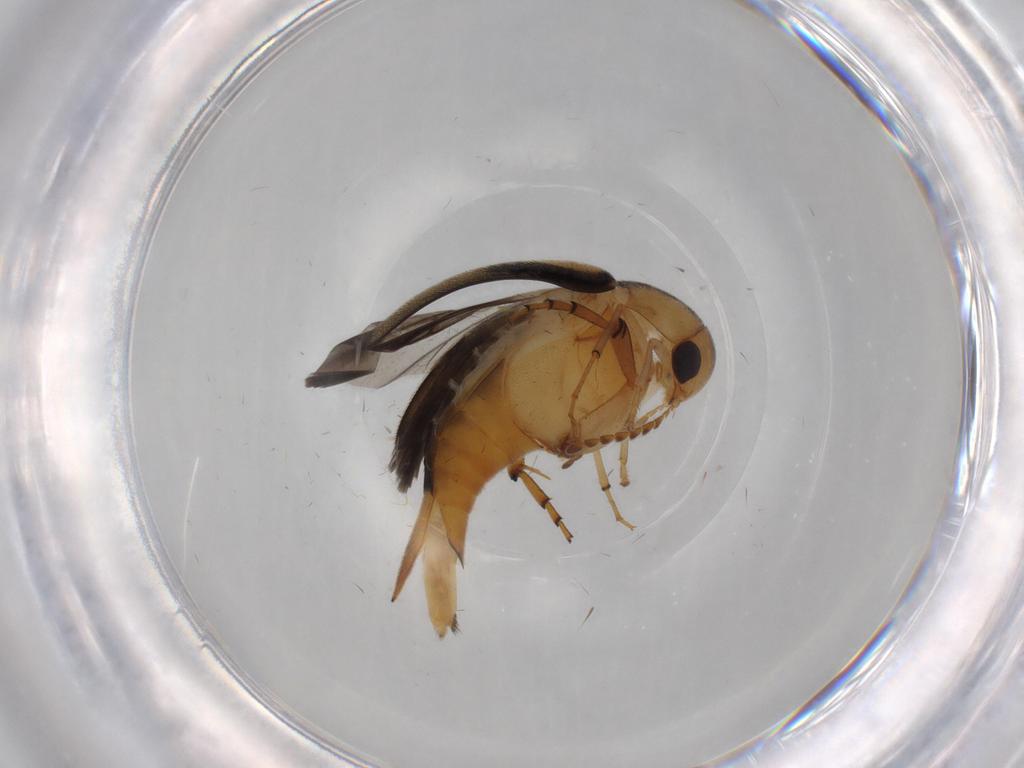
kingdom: Animalia
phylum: Arthropoda
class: Insecta
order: Coleoptera
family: Mordellidae
